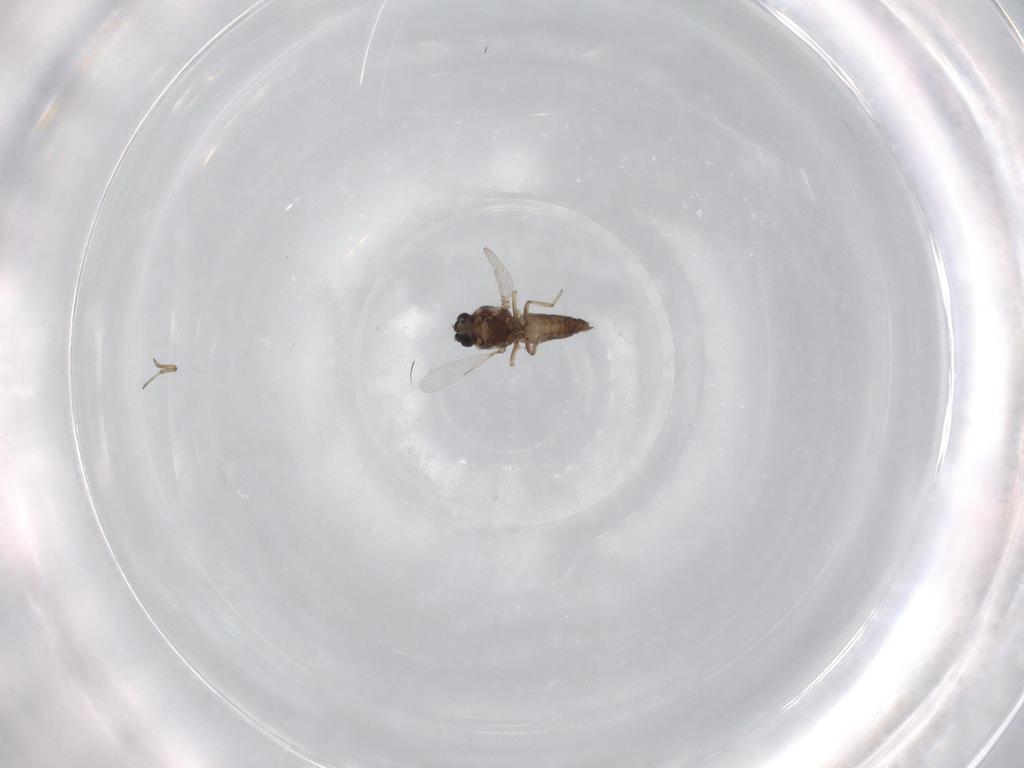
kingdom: Animalia
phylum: Arthropoda
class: Insecta
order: Diptera
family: Ceratopogonidae
